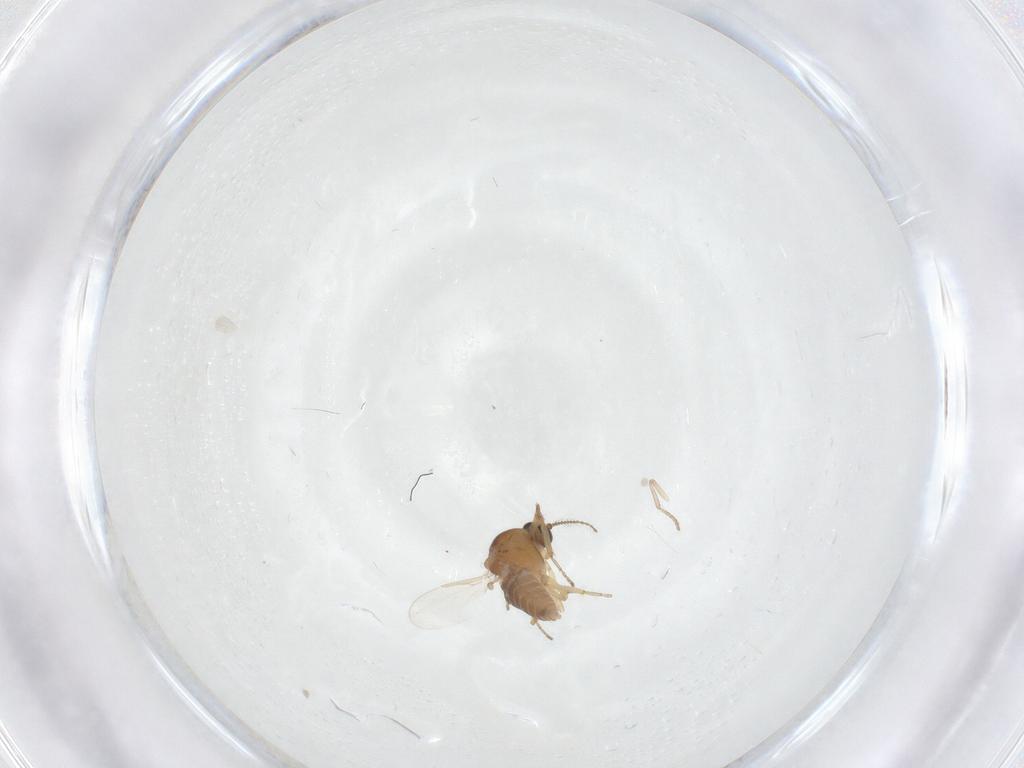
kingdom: Animalia
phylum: Arthropoda
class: Insecta
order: Diptera
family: Ceratopogonidae
